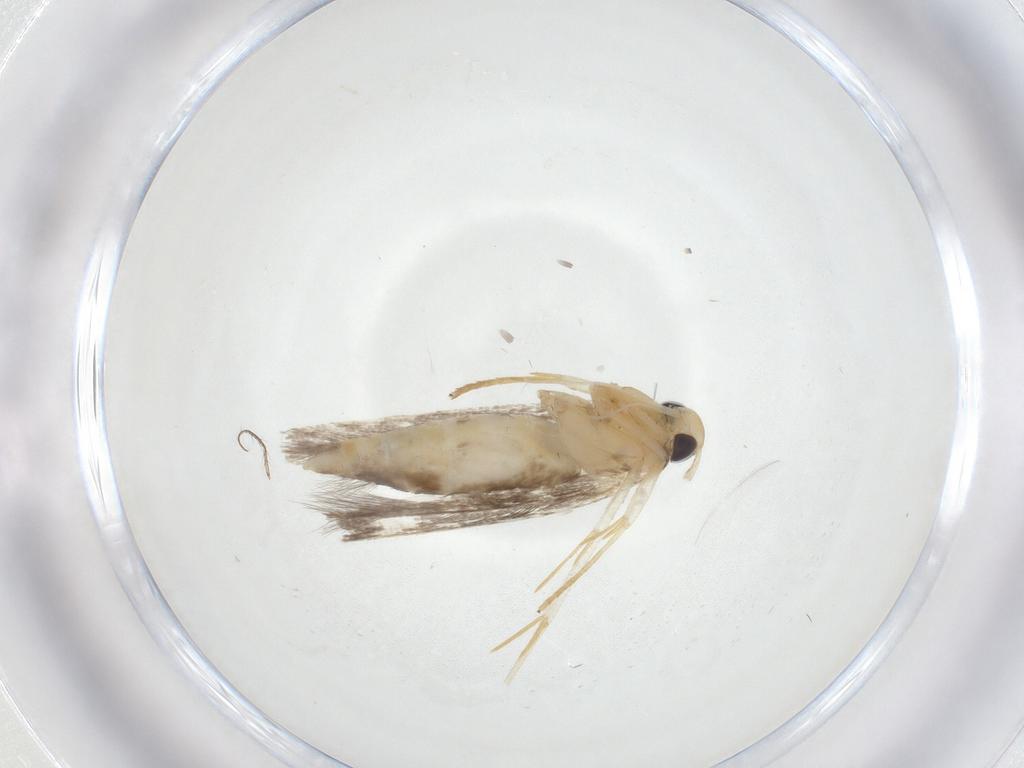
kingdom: Animalia
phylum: Arthropoda
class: Insecta
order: Lepidoptera
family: Cosmopterigidae
